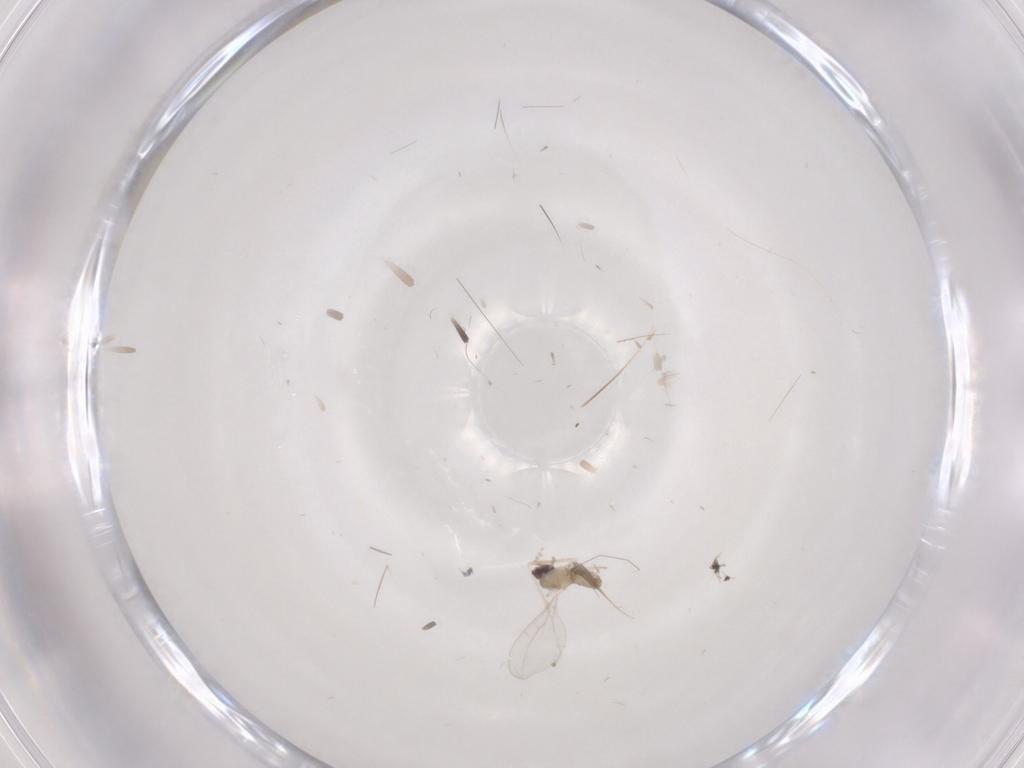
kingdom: Animalia
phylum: Arthropoda
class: Insecta
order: Diptera
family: Cecidomyiidae
